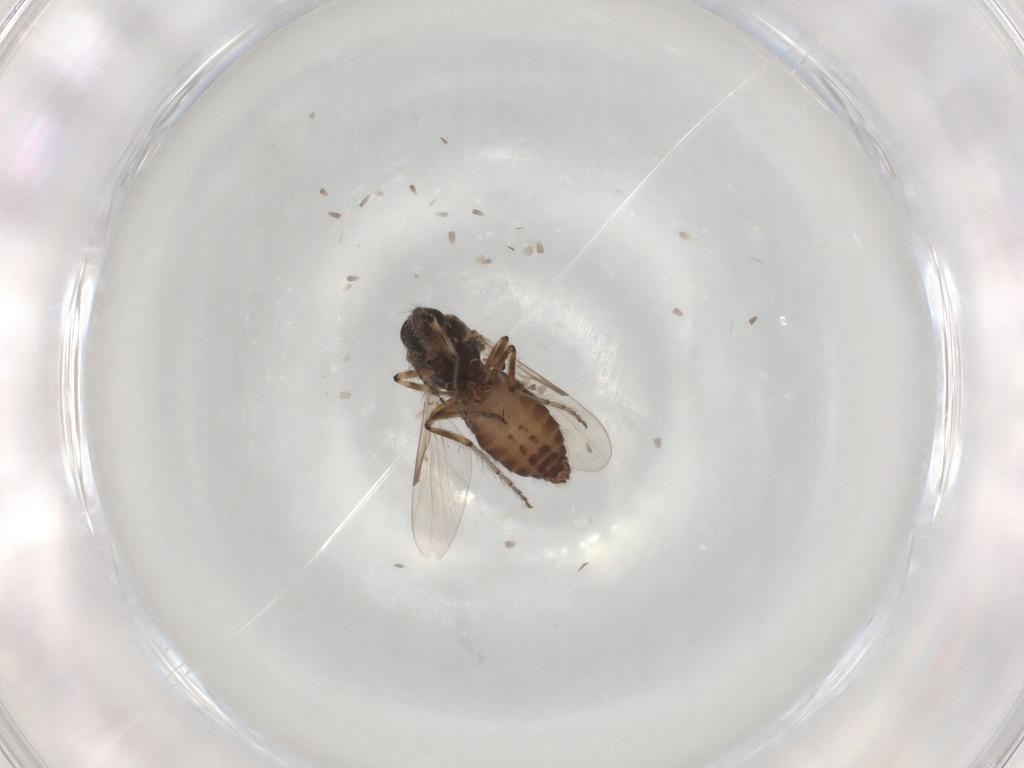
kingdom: Animalia
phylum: Arthropoda
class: Insecta
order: Diptera
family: Ceratopogonidae
